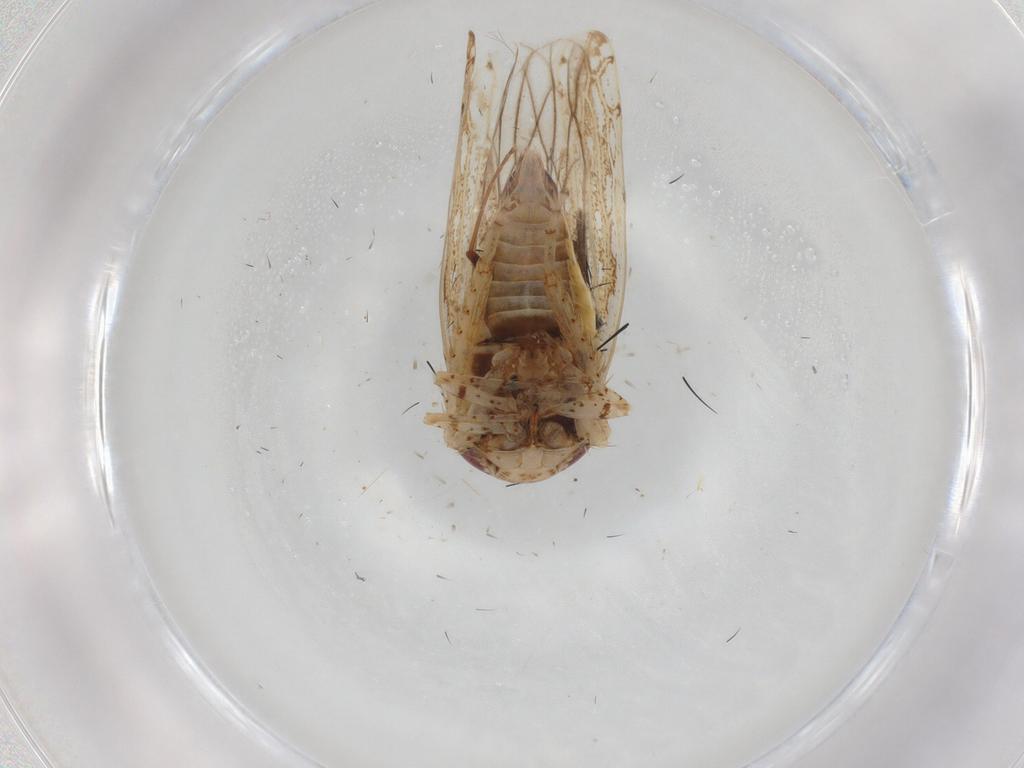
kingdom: Animalia
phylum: Arthropoda
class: Insecta
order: Hemiptera
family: Cicadellidae
